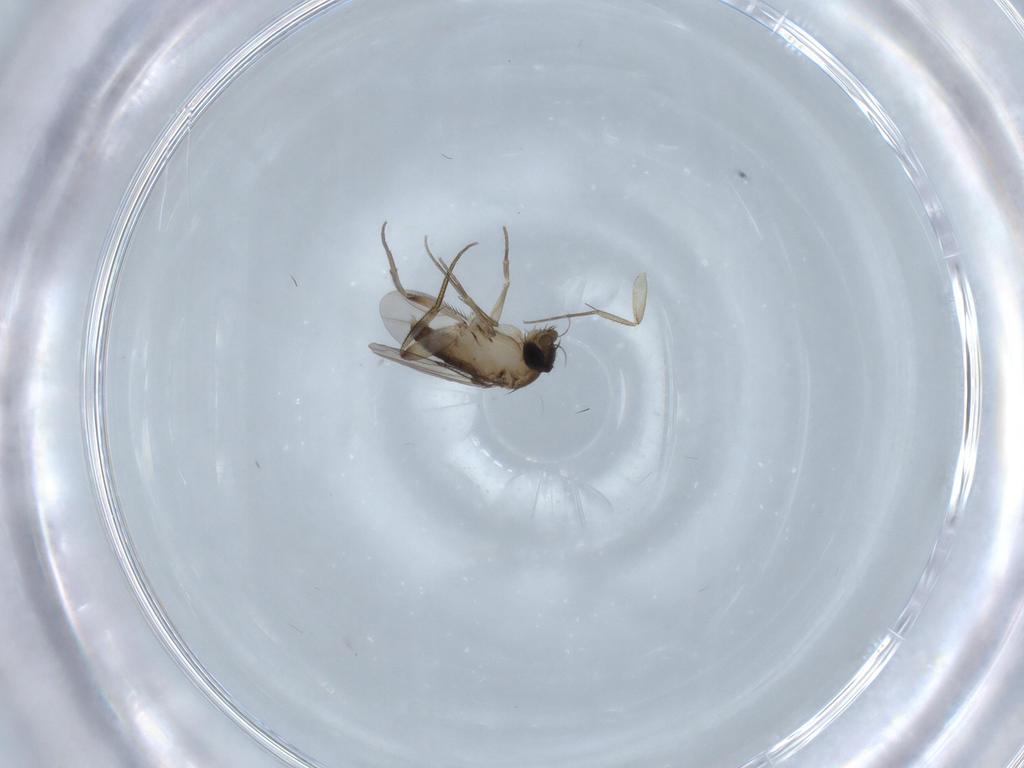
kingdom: Animalia
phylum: Arthropoda
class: Insecta
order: Diptera
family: Phoridae
